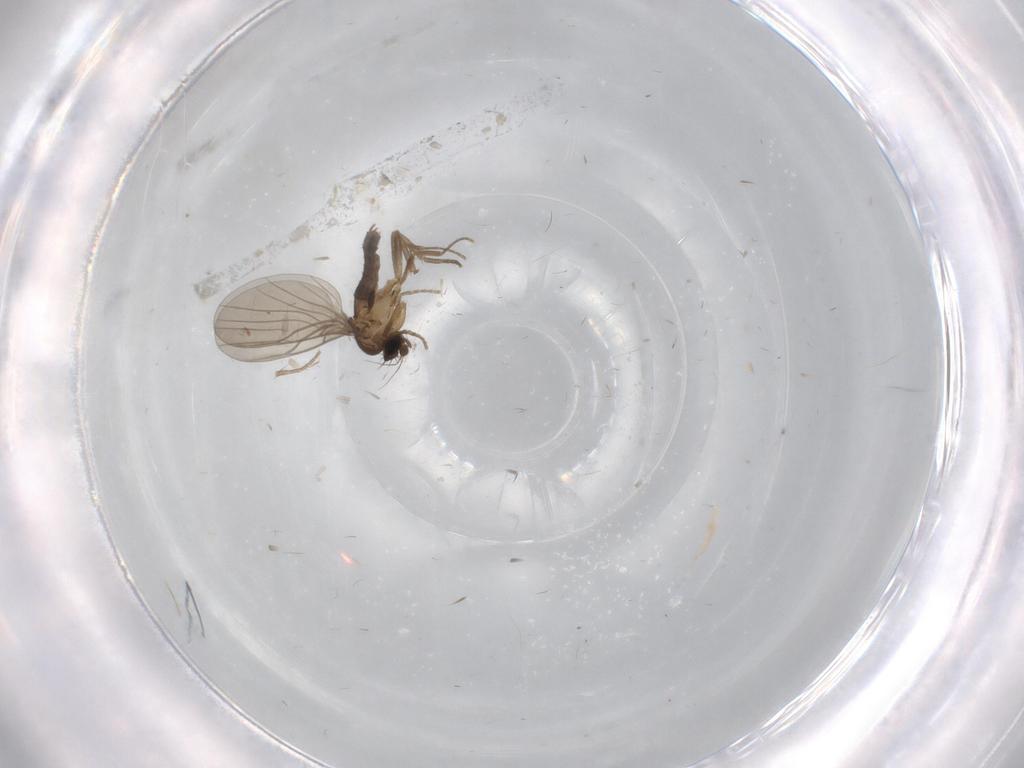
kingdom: Animalia
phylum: Arthropoda
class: Insecta
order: Diptera
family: Phoridae
